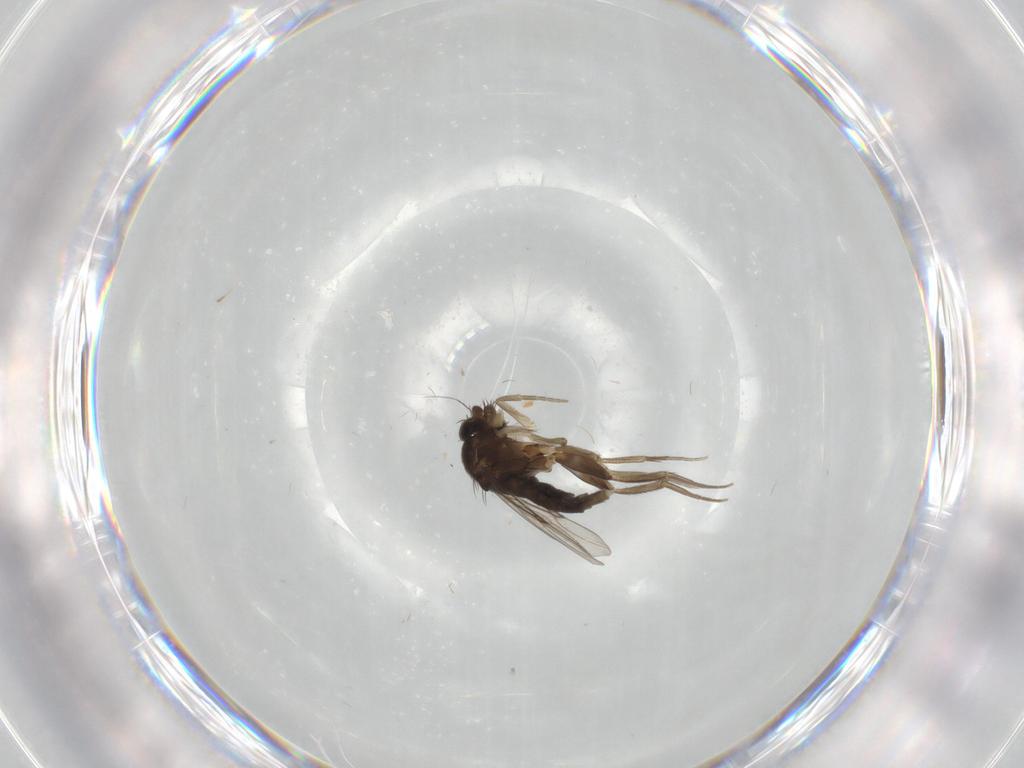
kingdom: Animalia
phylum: Arthropoda
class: Insecta
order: Diptera
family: Phoridae
